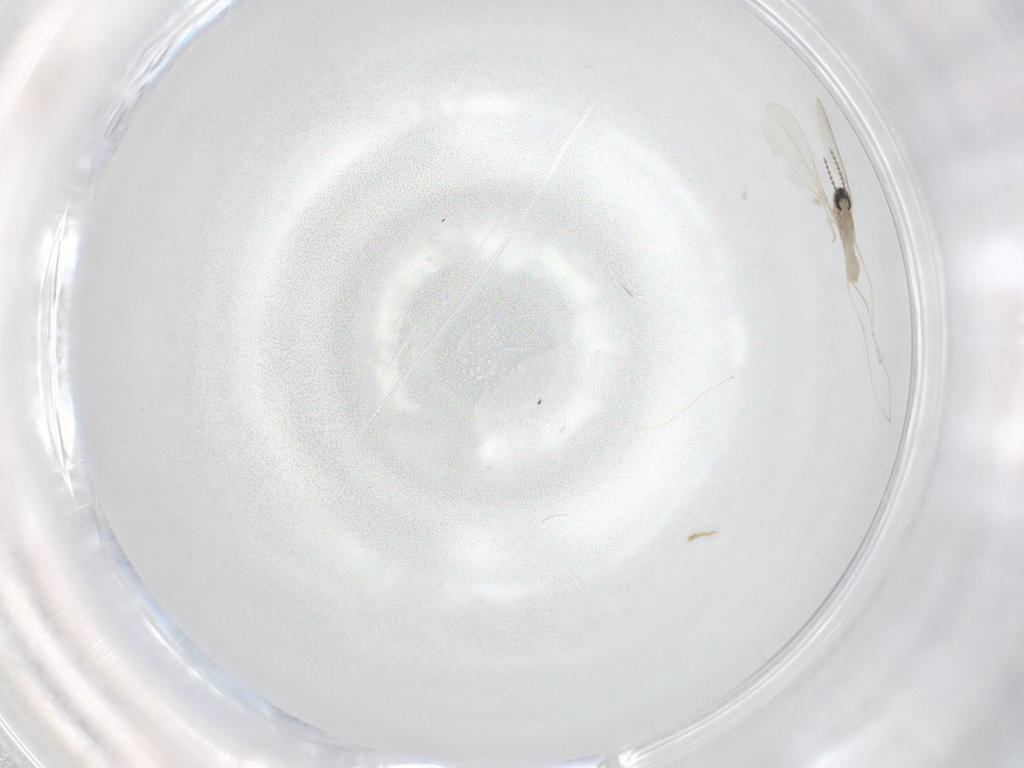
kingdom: Animalia
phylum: Arthropoda
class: Insecta
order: Diptera
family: Cecidomyiidae
